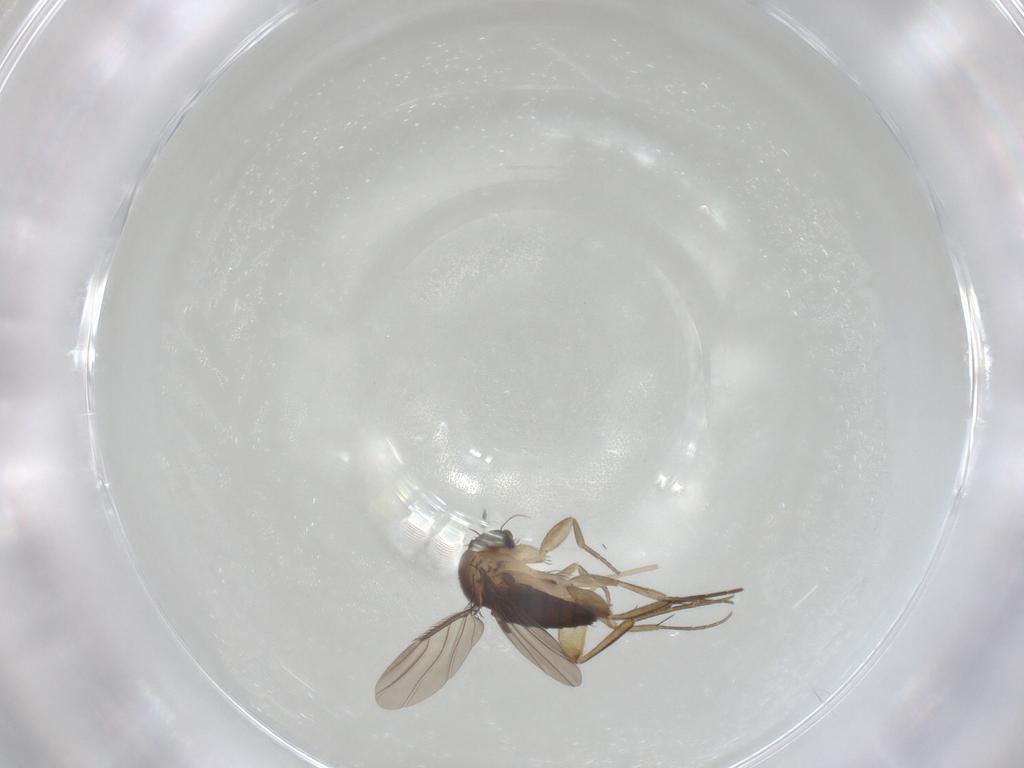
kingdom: Animalia
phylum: Arthropoda
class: Insecta
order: Diptera
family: Phoridae
